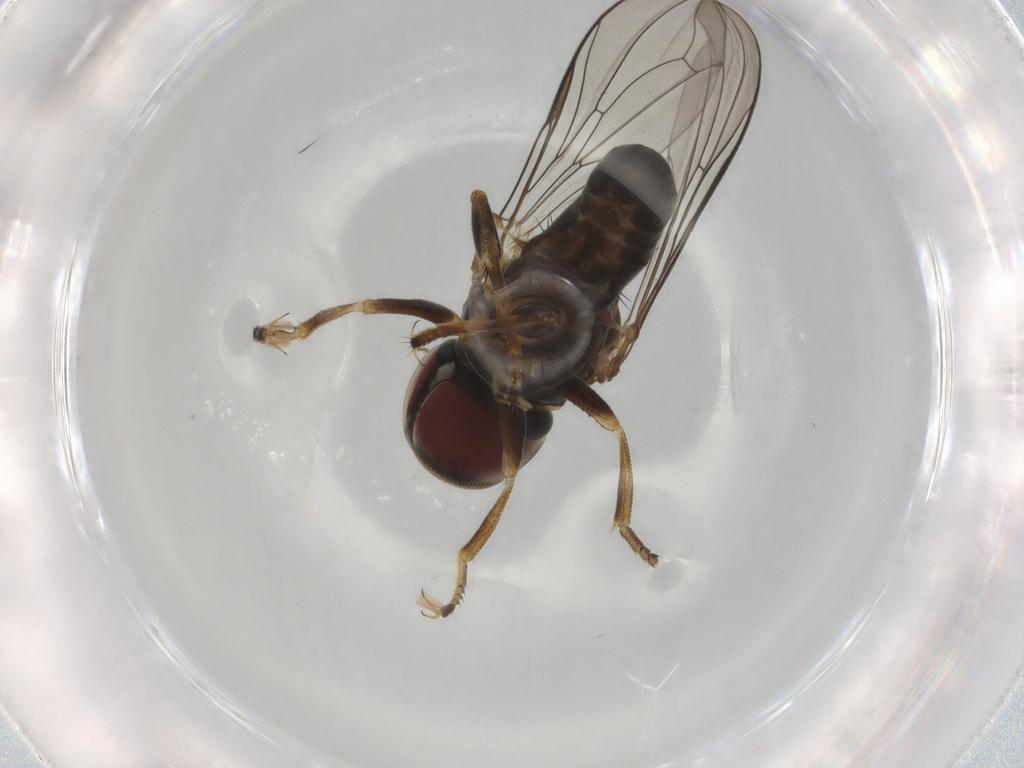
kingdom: Animalia
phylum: Arthropoda
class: Insecta
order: Diptera
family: Pipunculidae
